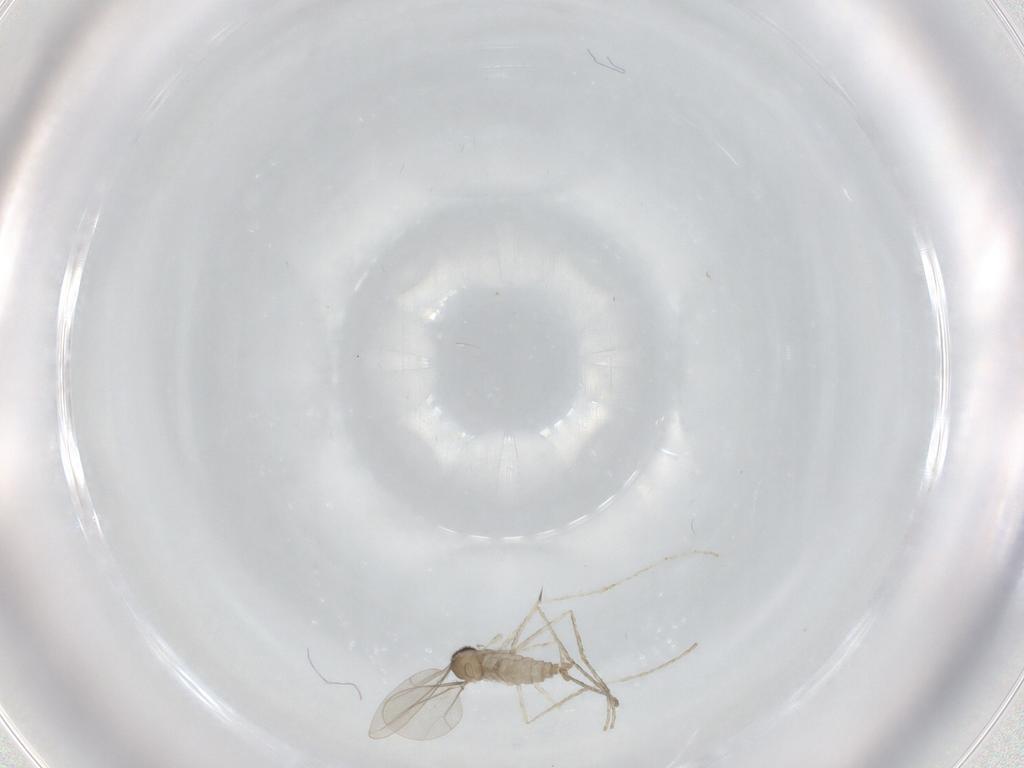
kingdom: Animalia
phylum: Arthropoda
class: Insecta
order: Diptera
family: Cecidomyiidae
